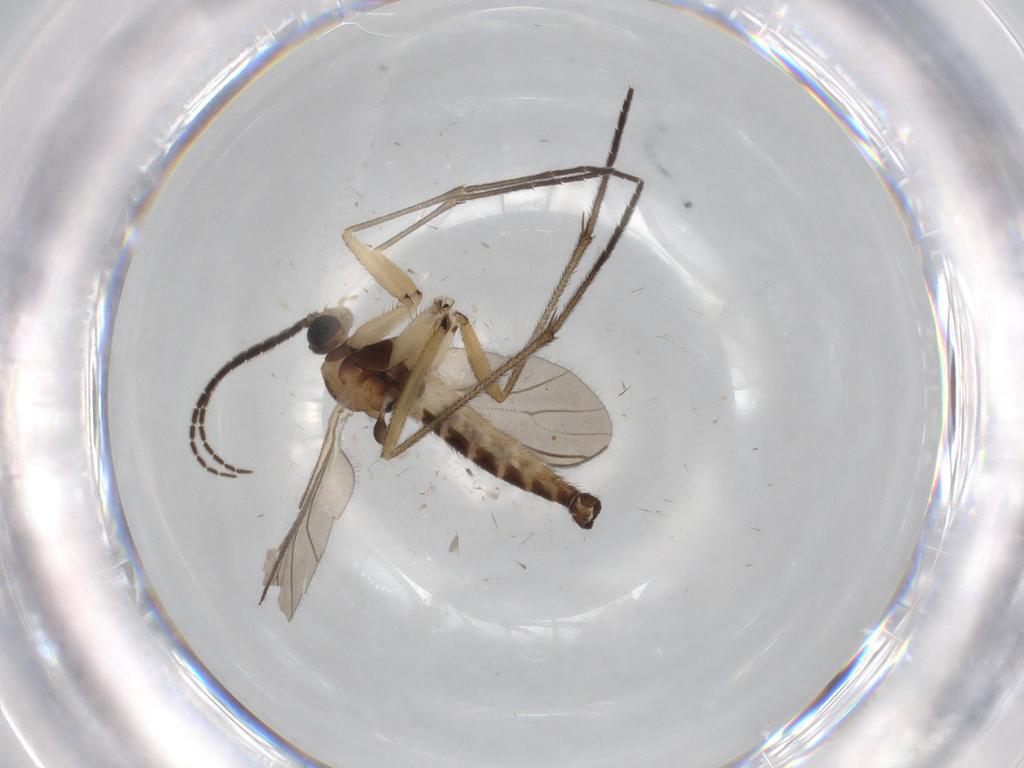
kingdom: Animalia
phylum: Arthropoda
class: Insecta
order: Diptera
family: Sciaridae
